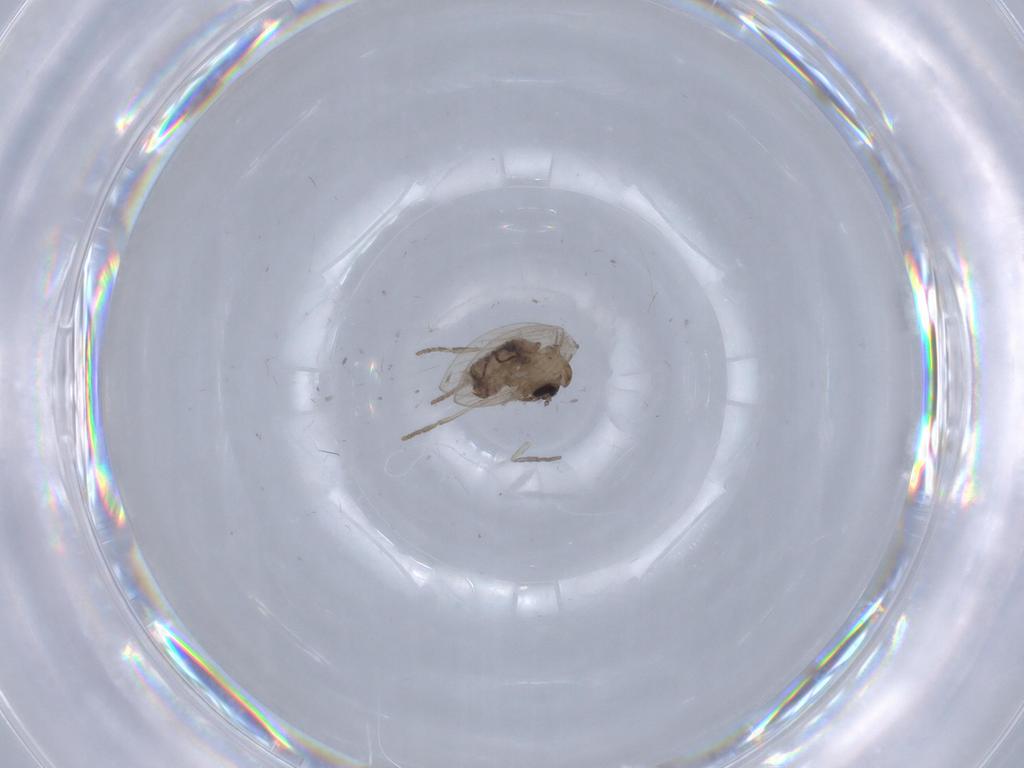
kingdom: Animalia
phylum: Arthropoda
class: Insecta
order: Diptera
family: Psychodidae
